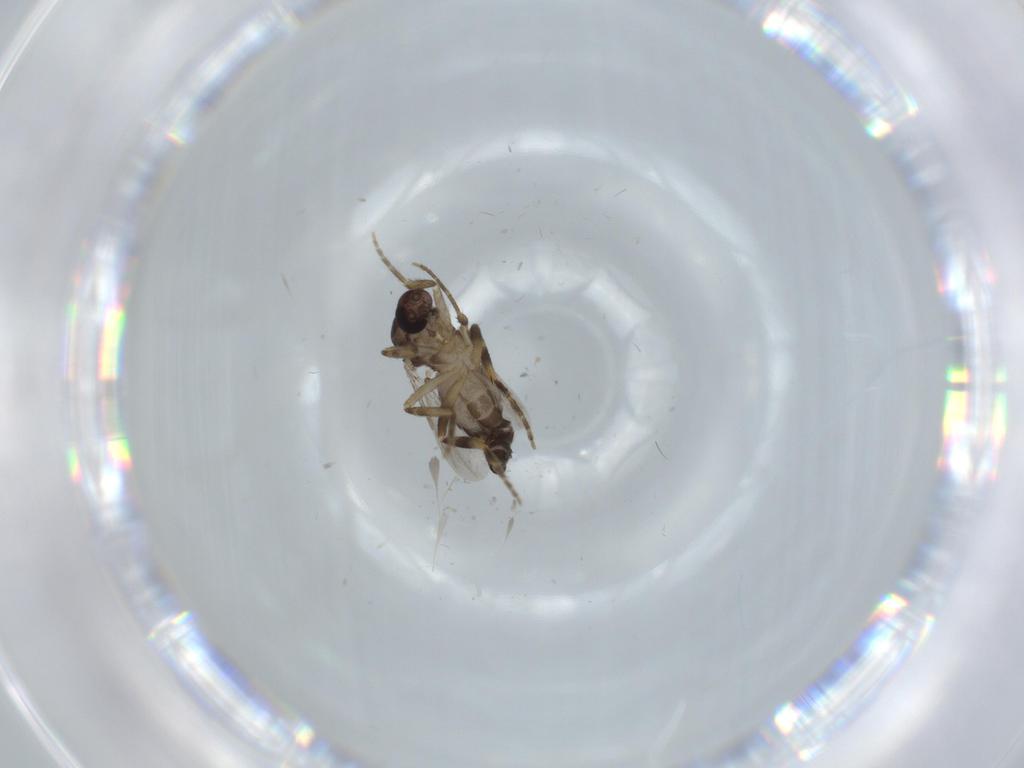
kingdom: Animalia
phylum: Arthropoda
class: Insecta
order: Diptera
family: Ceratopogonidae
